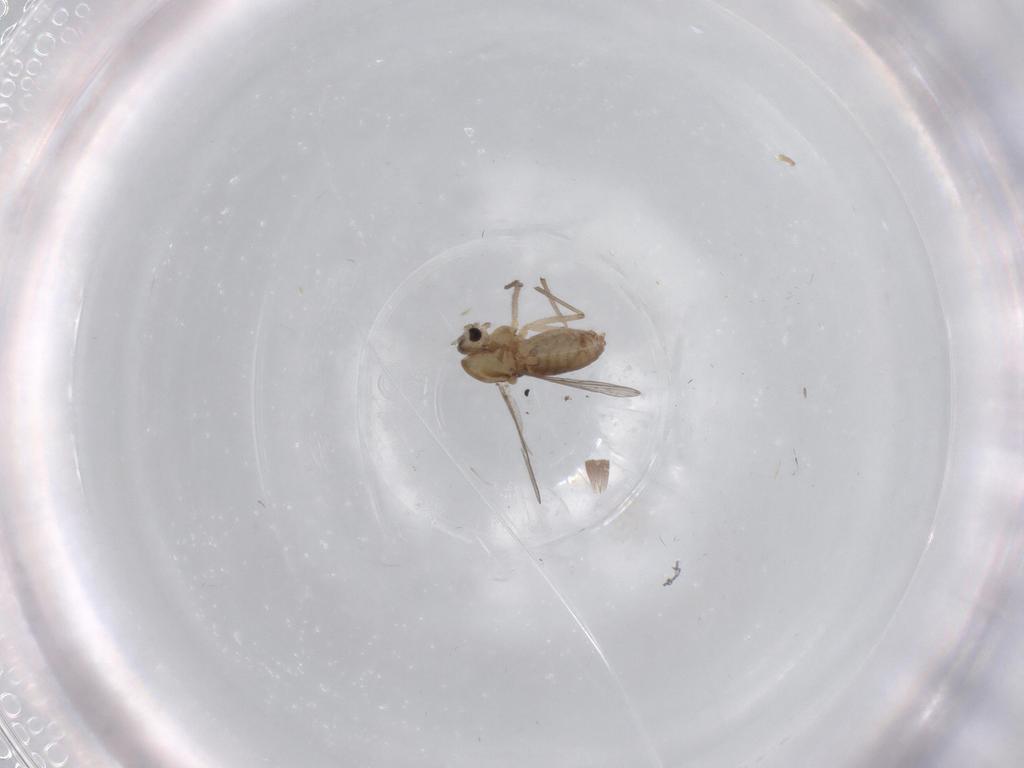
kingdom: Animalia
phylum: Arthropoda
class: Insecta
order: Diptera
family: Chironomidae
